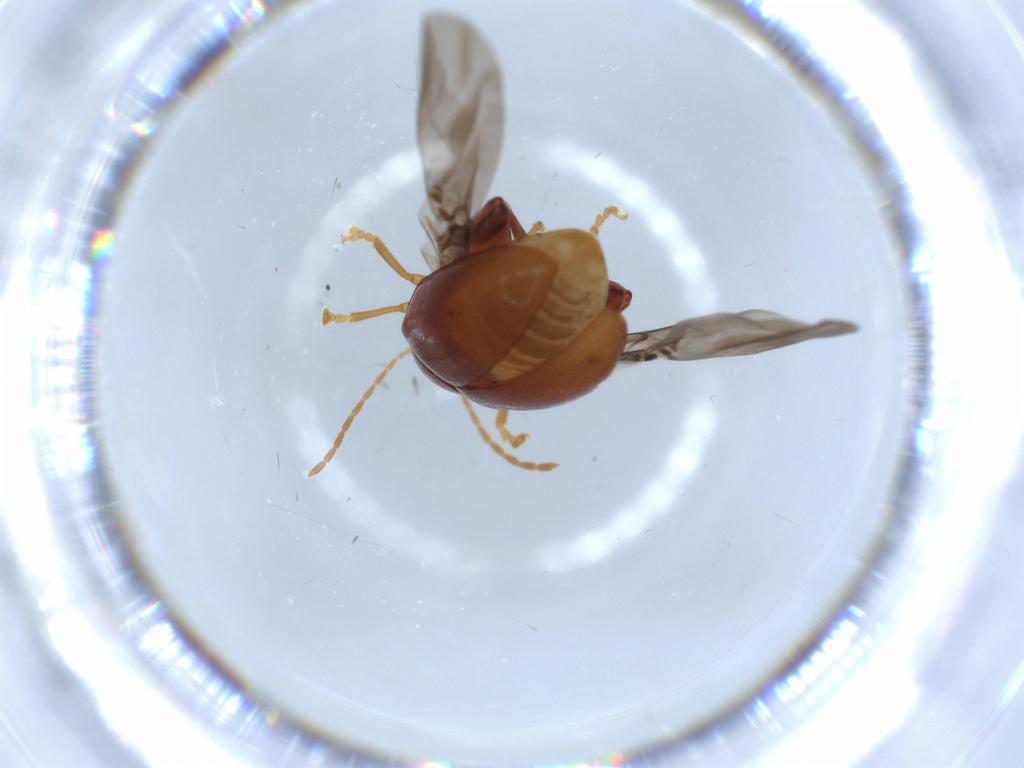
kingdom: Animalia
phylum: Arthropoda
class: Insecta
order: Coleoptera
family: Chrysomelidae
